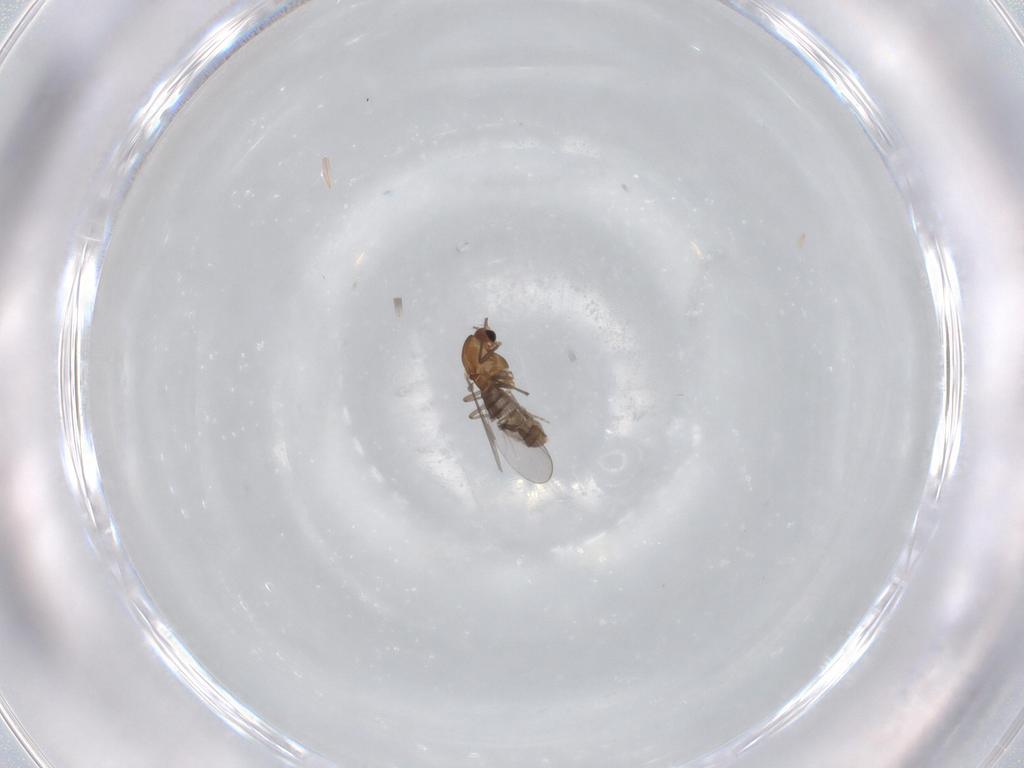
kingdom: Animalia
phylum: Arthropoda
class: Insecta
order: Diptera
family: Chironomidae
